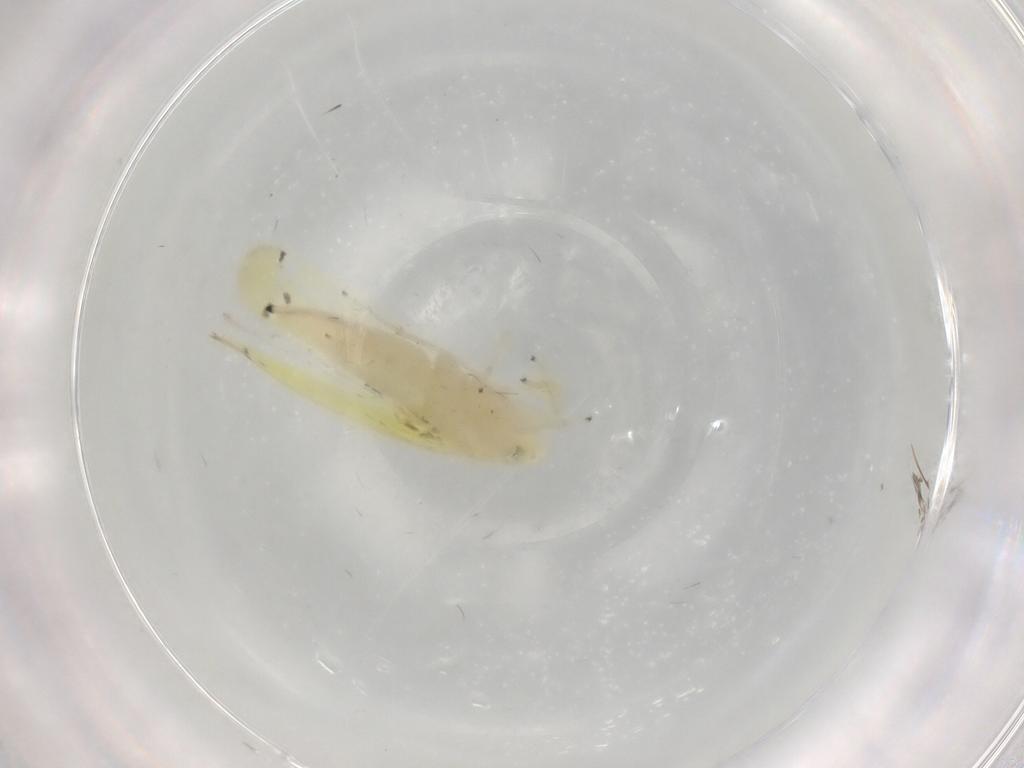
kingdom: Animalia
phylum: Arthropoda
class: Insecta
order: Hemiptera
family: Cicadellidae
